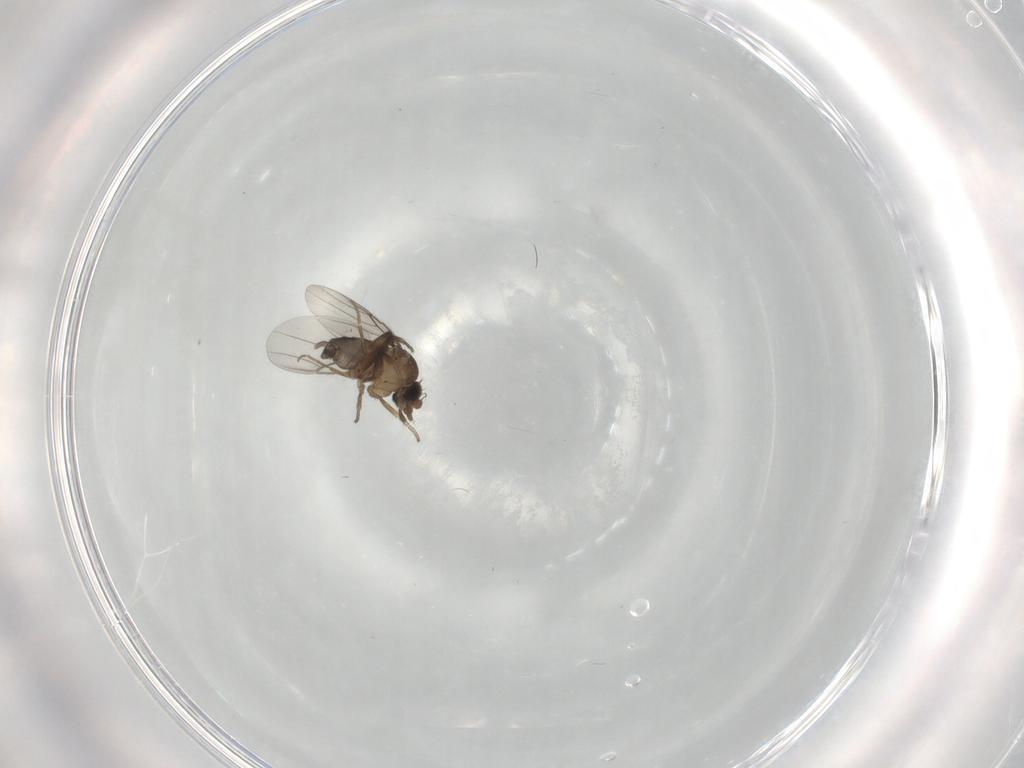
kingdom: Animalia
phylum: Arthropoda
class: Insecta
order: Diptera
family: Phoridae
